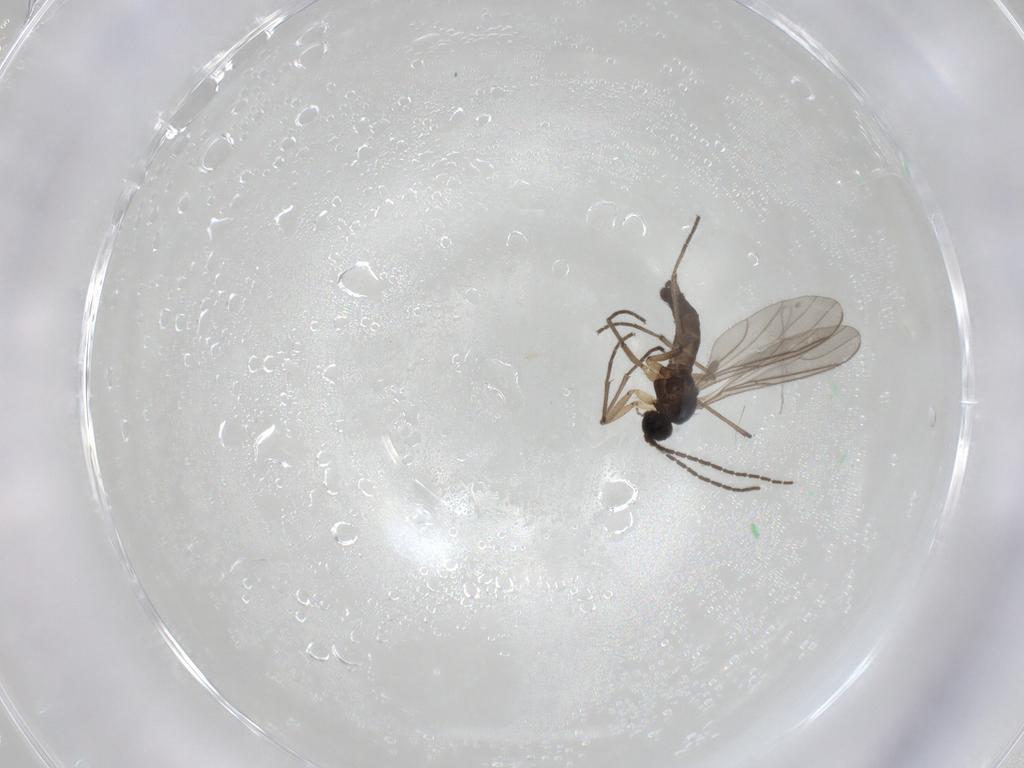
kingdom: Animalia
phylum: Arthropoda
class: Insecta
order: Diptera
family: Ceratopogonidae
